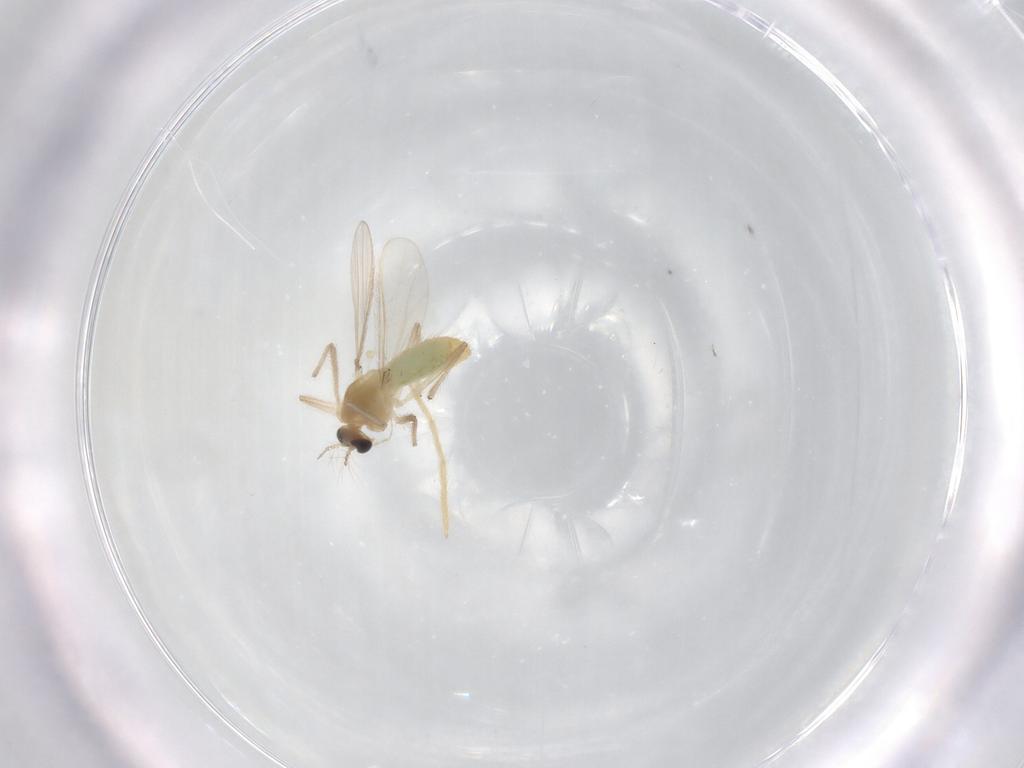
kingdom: Animalia
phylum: Arthropoda
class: Insecta
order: Diptera
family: Chironomidae
